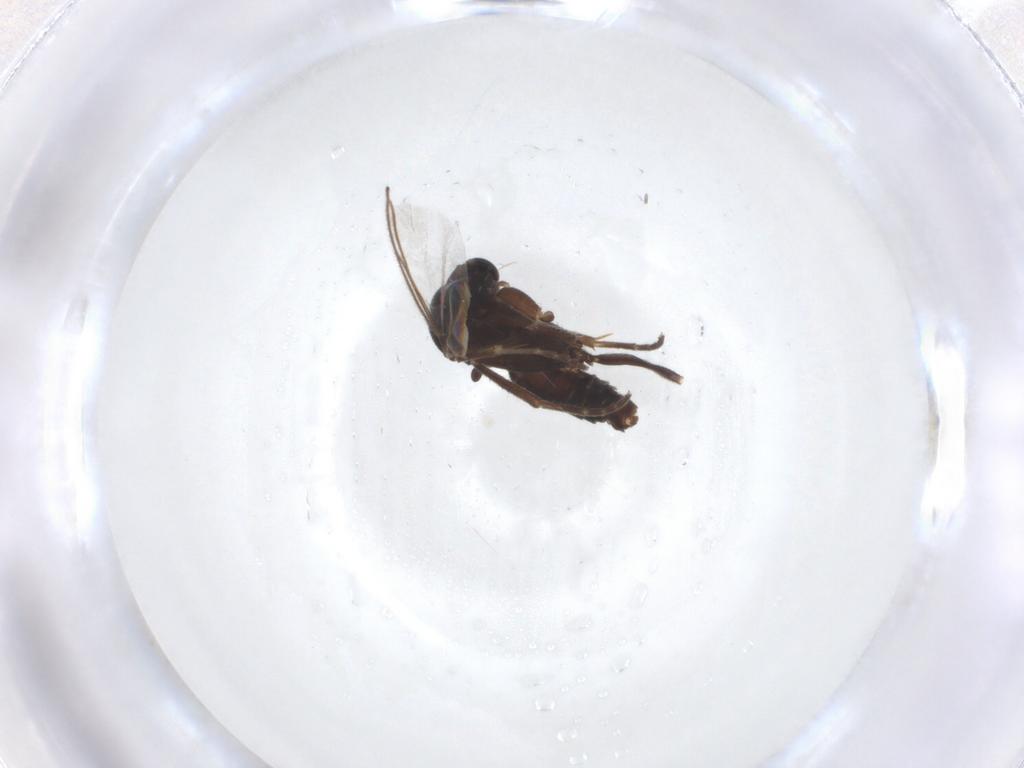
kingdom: Animalia
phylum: Arthropoda
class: Insecta
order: Diptera
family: Mycetophilidae
